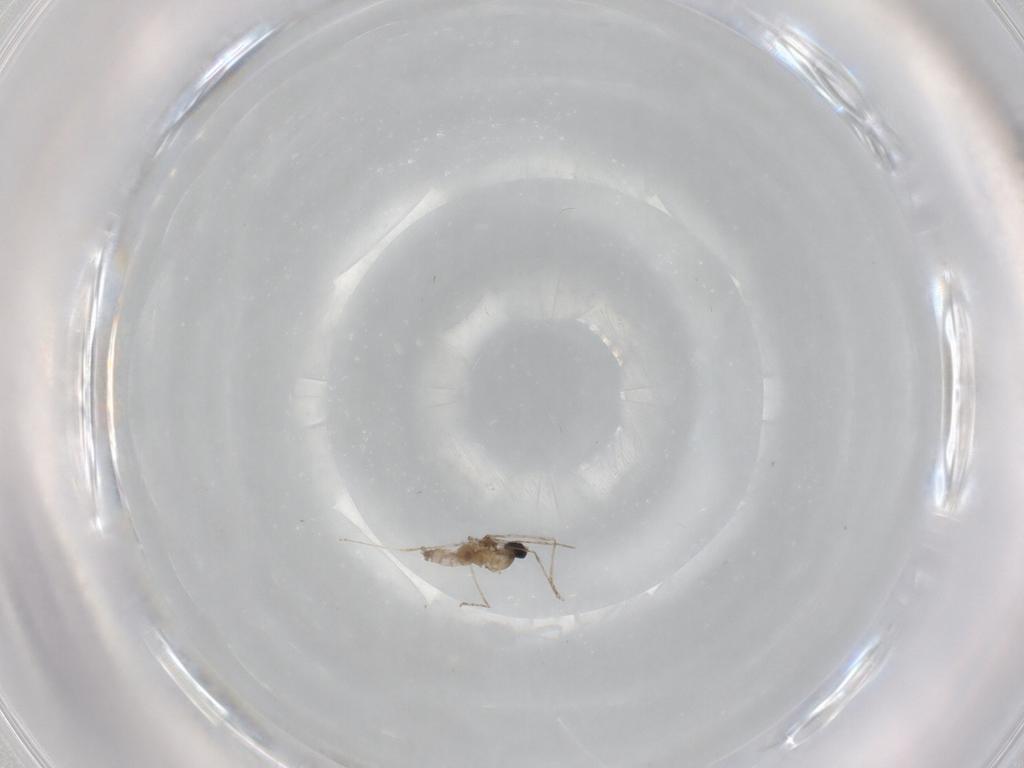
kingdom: Animalia
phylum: Arthropoda
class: Insecta
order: Diptera
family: Cecidomyiidae
